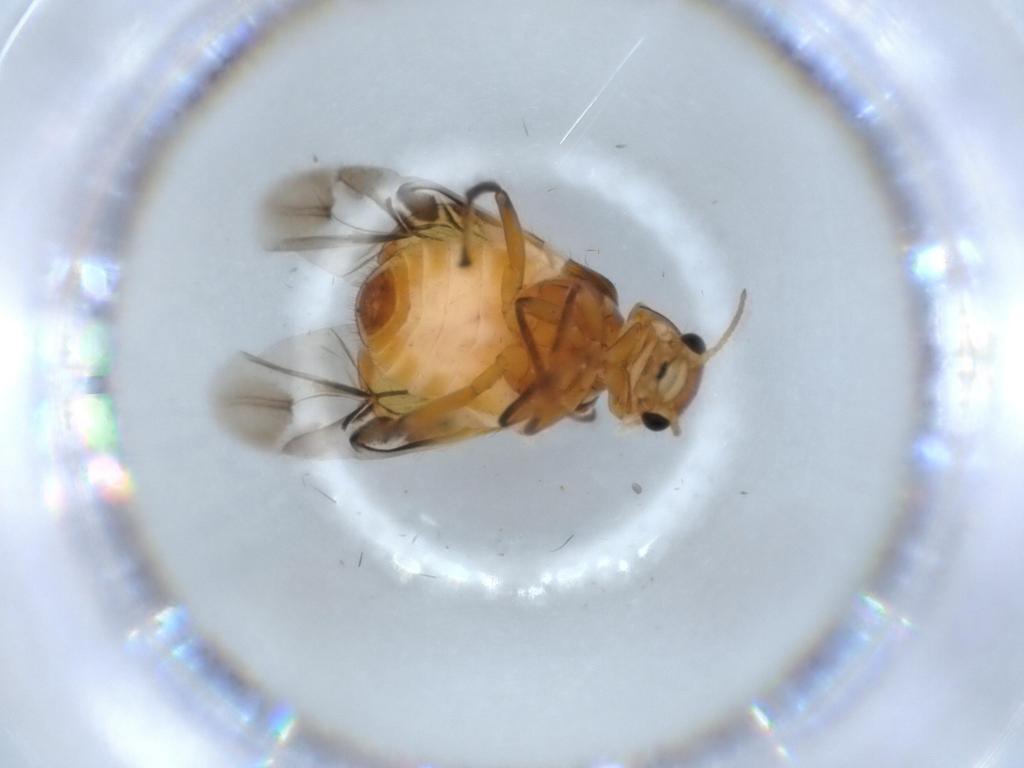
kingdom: Animalia
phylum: Arthropoda
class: Insecta
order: Coleoptera
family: Melyridae
